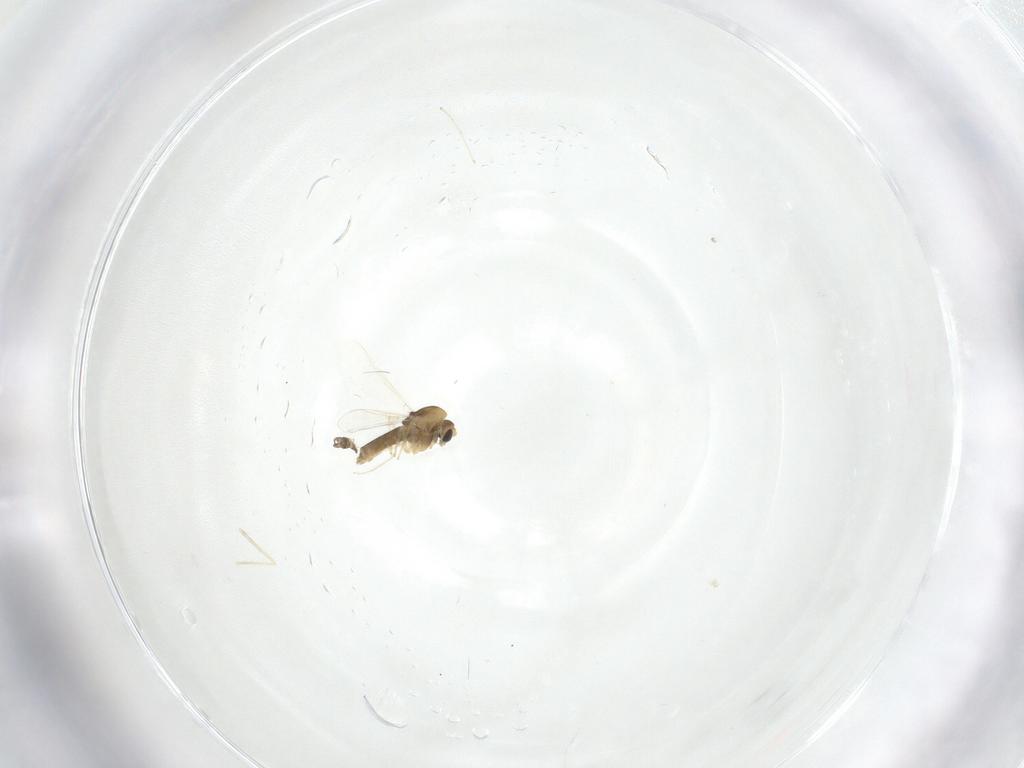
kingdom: Animalia
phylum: Arthropoda
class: Insecta
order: Diptera
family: Chironomidae
